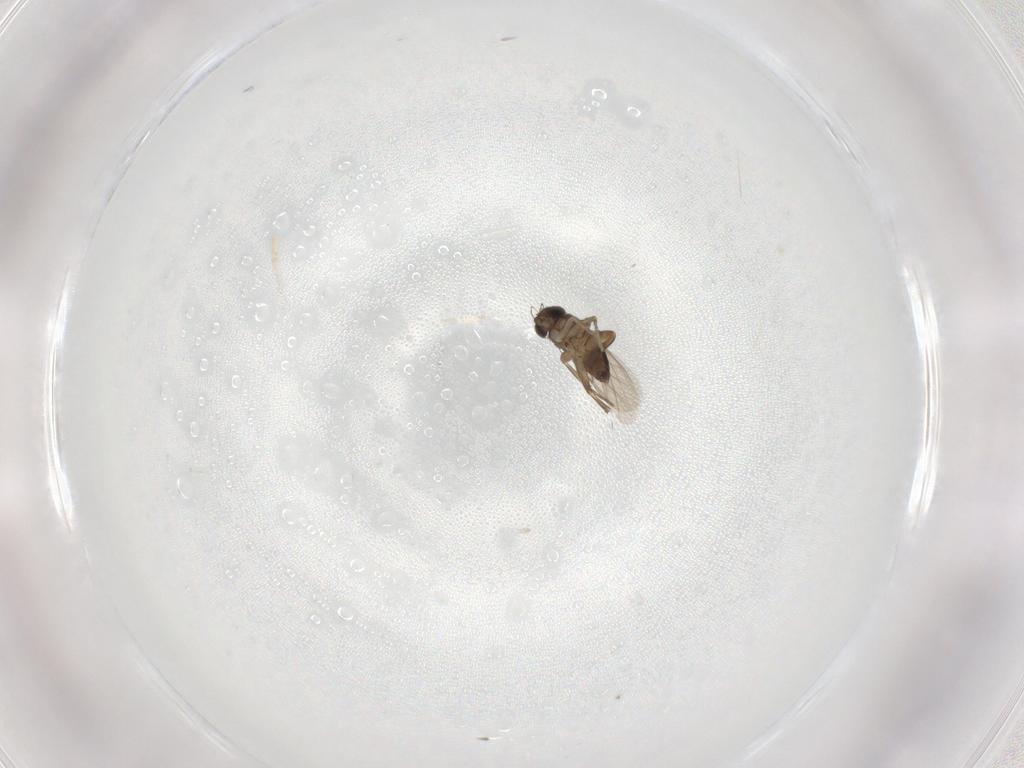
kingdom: Animalia
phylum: Arthropoda
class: Insecta
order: Diptera
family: Phoridae
